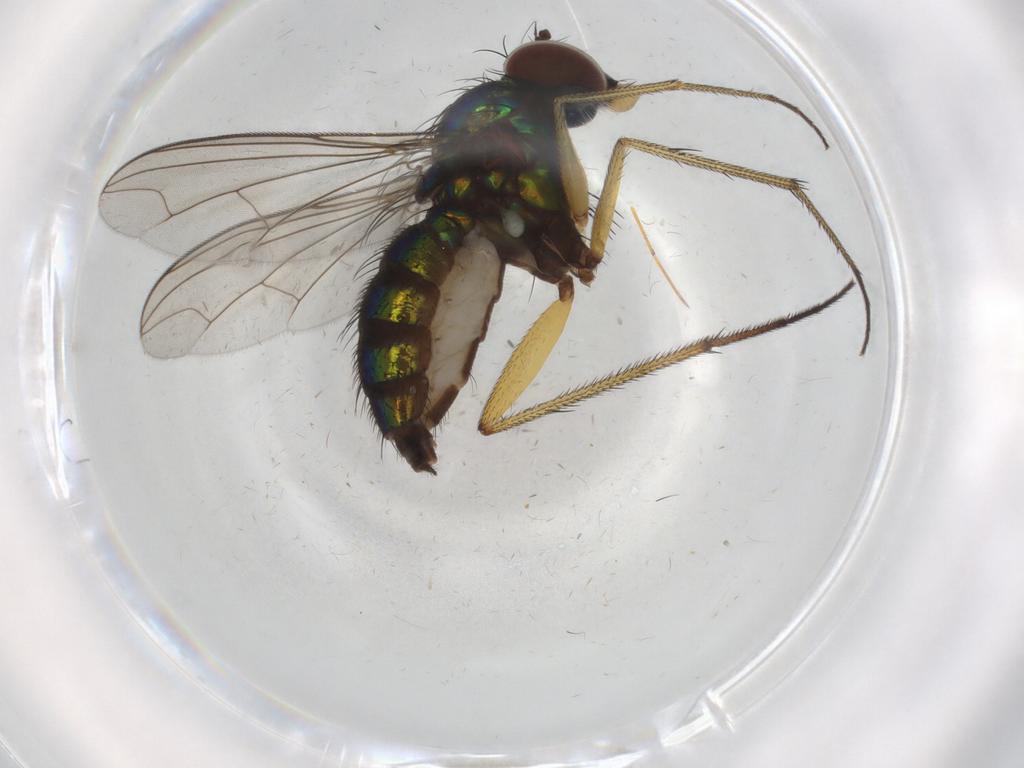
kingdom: Animalia
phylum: Arthropoda
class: Insecta
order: Diptera
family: Dolichopodidae
